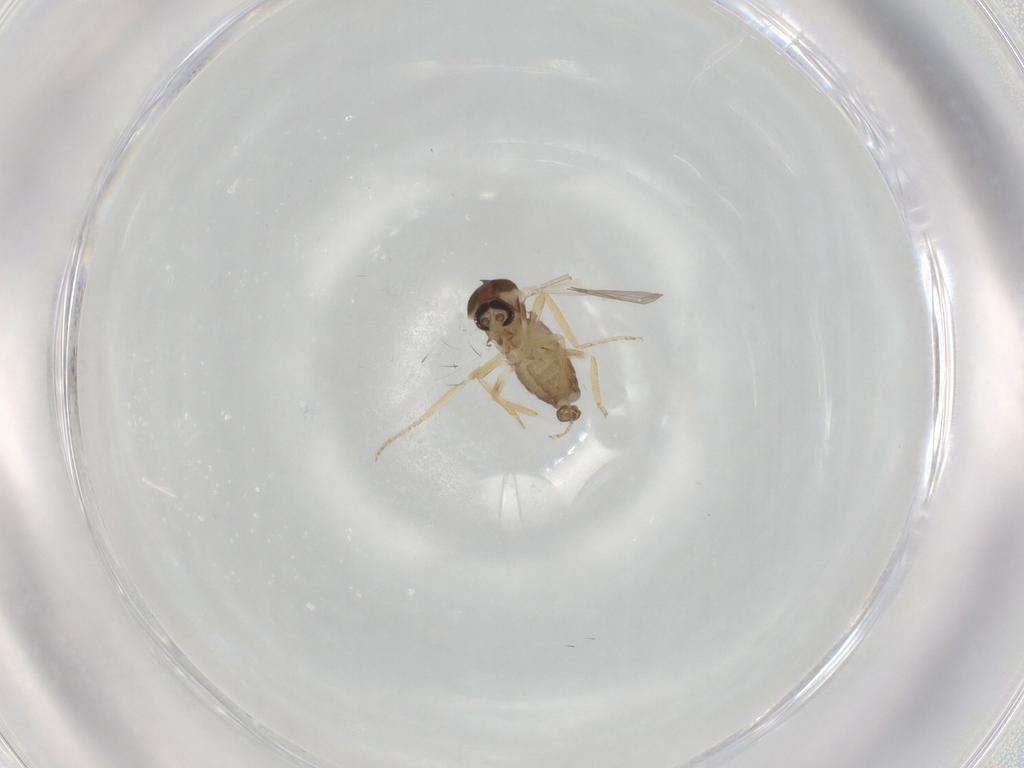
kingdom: Animalia
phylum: Arthropoda
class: Insecta
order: Diptera
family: Ceratopogonidae
